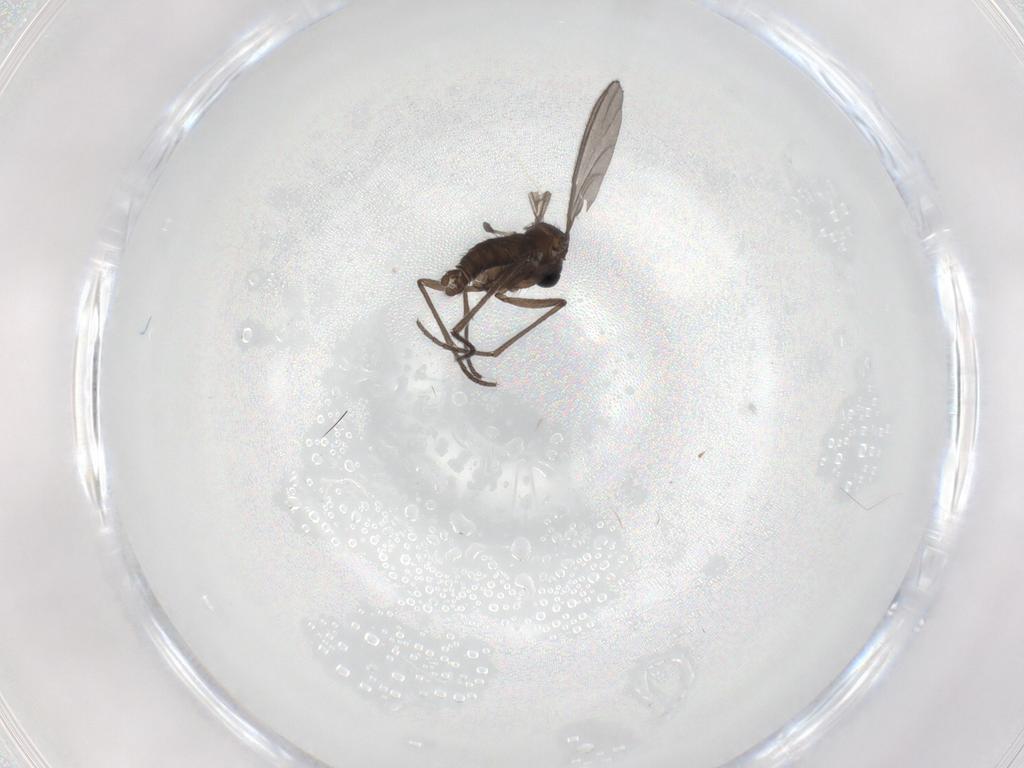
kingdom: Animalia
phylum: Arthropoda
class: Insecta
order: Diptera
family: Sciaridae
